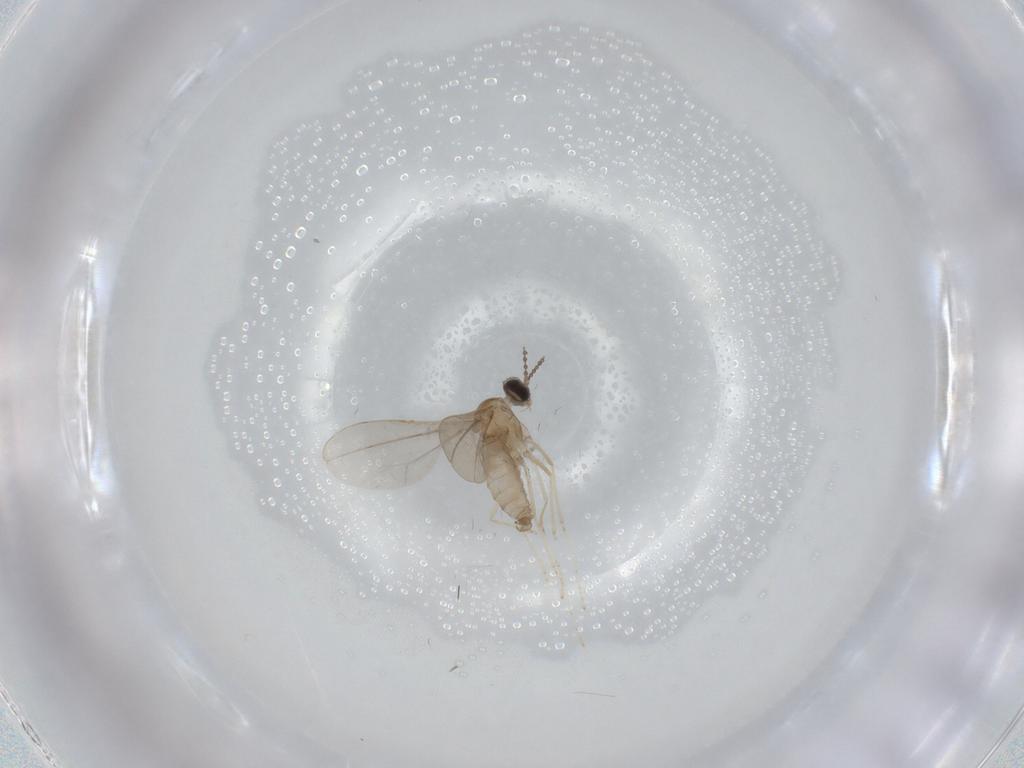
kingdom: Animalia
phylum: Arthropoda
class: Insecta
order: Diptera
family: Cecidomyiidae
